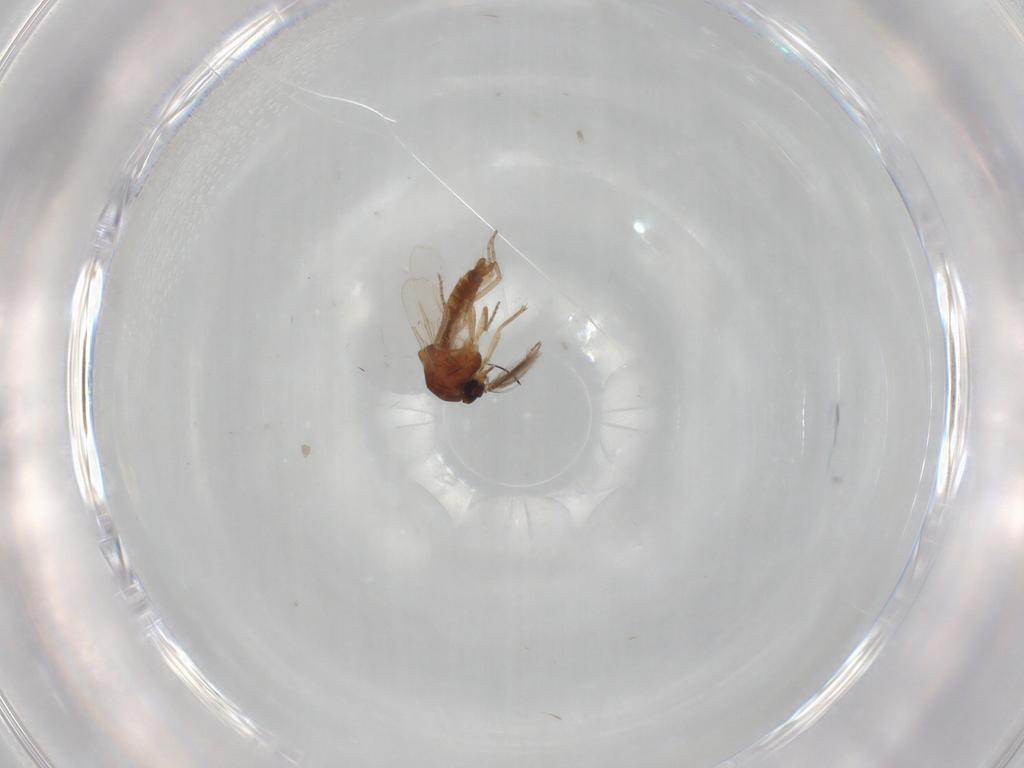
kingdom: Animalia
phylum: Arthropoda
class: Insecta
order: Diptera
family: Ceratopogonidae
